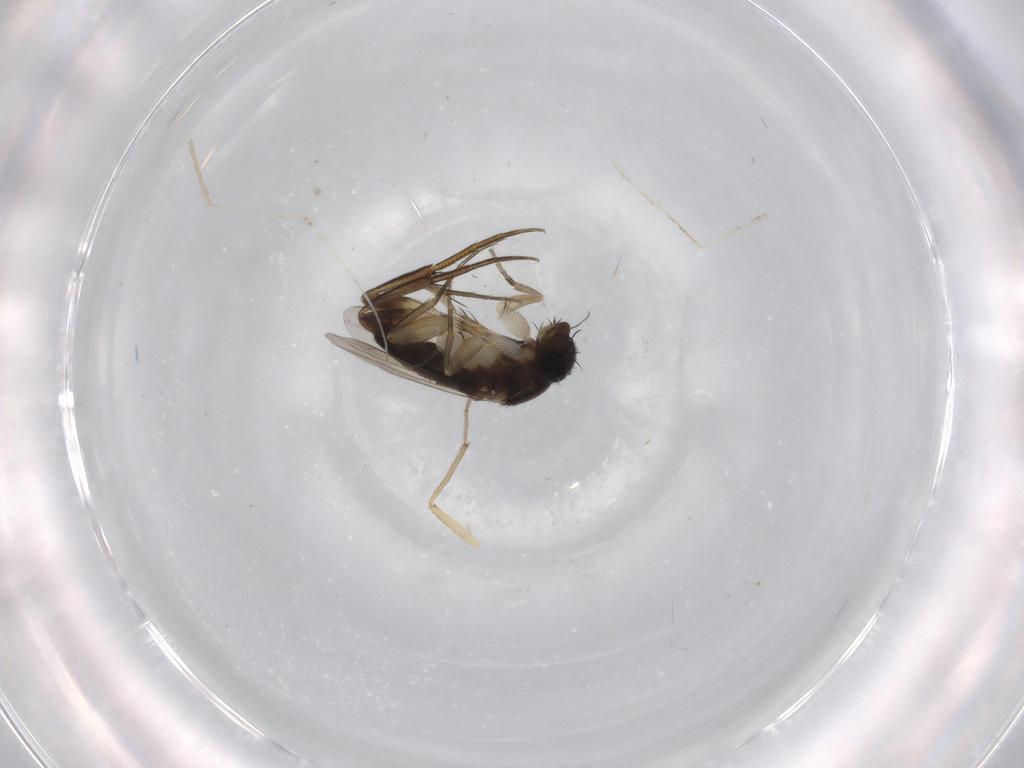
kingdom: Animalia
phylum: Arthropoda
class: Insecta
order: Diptera
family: Phoridae
